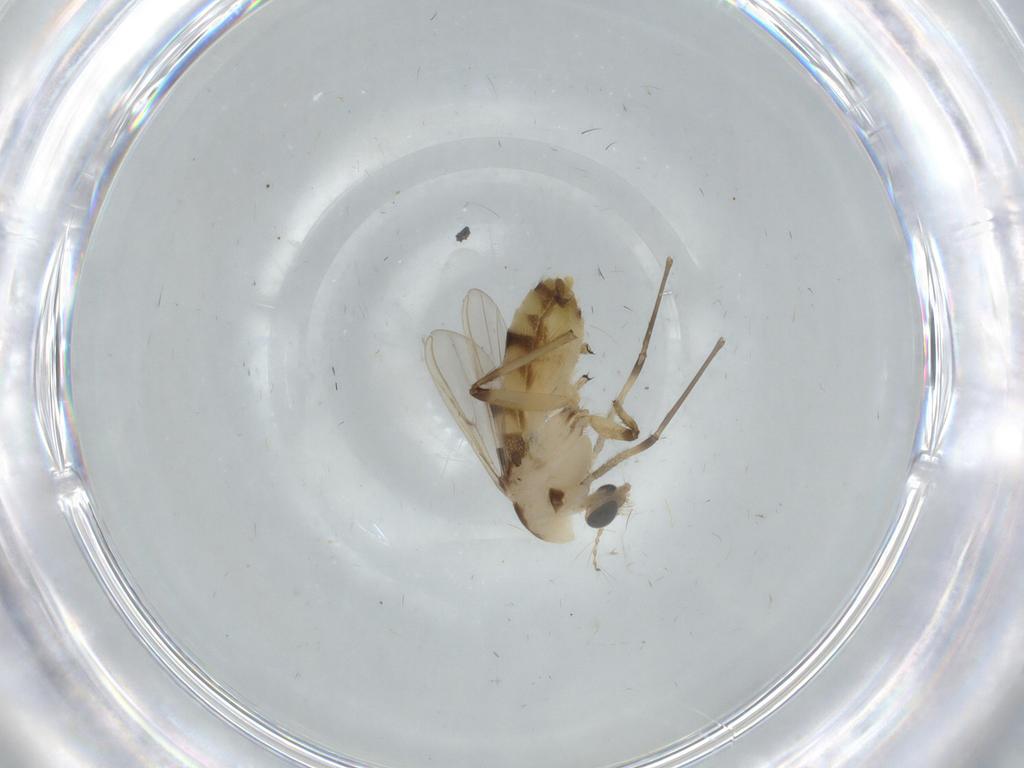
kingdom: Animalia
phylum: Arthropoda
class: Insecta
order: Diptera
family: Chironomidae
